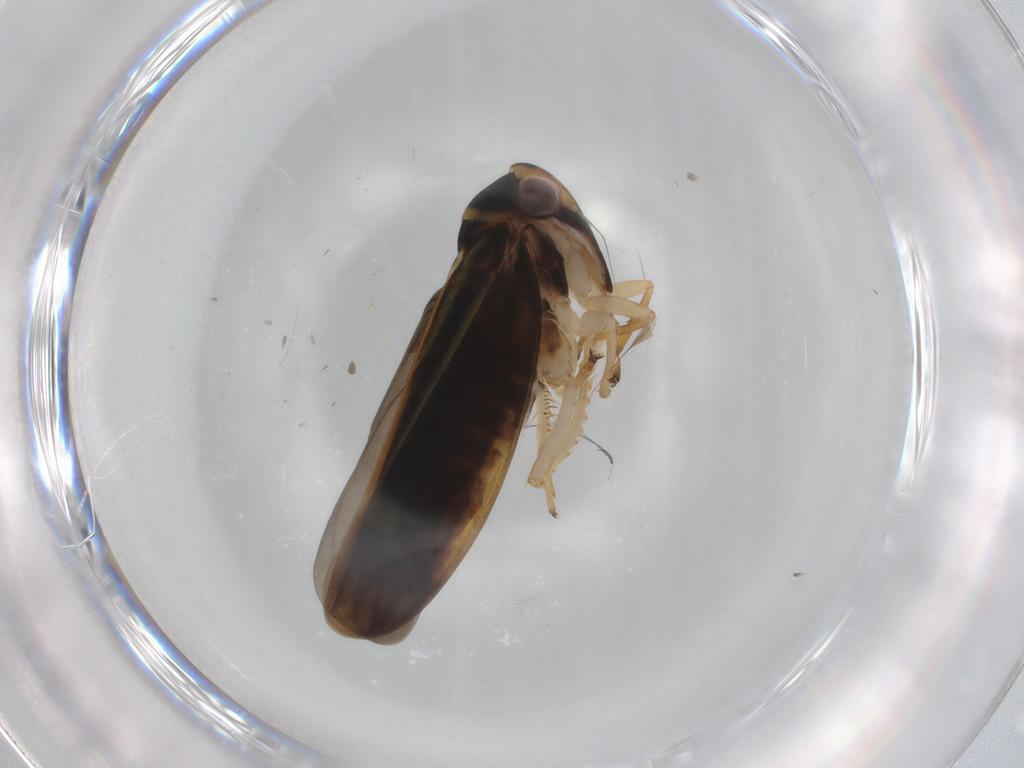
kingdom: Animalia
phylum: Arthropoda
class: Insecta
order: Hemiptera
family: Cicadellidae
